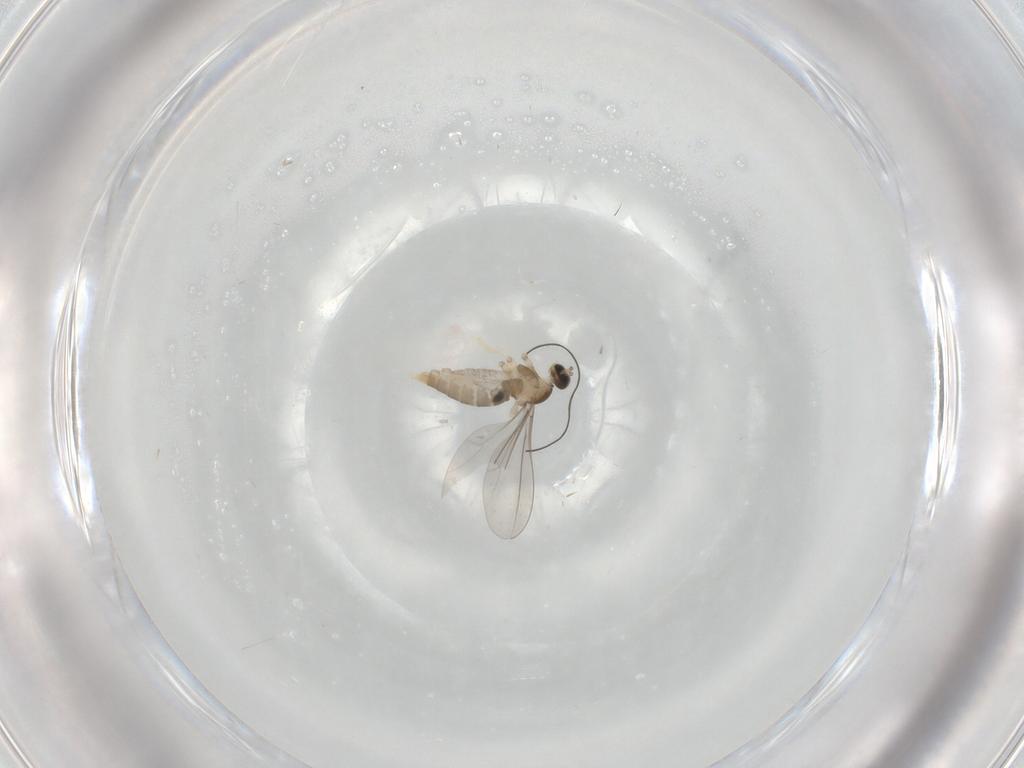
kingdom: Animalia
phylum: Arthropoda
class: Insecta
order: Diptera
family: Cecidomyiidae
